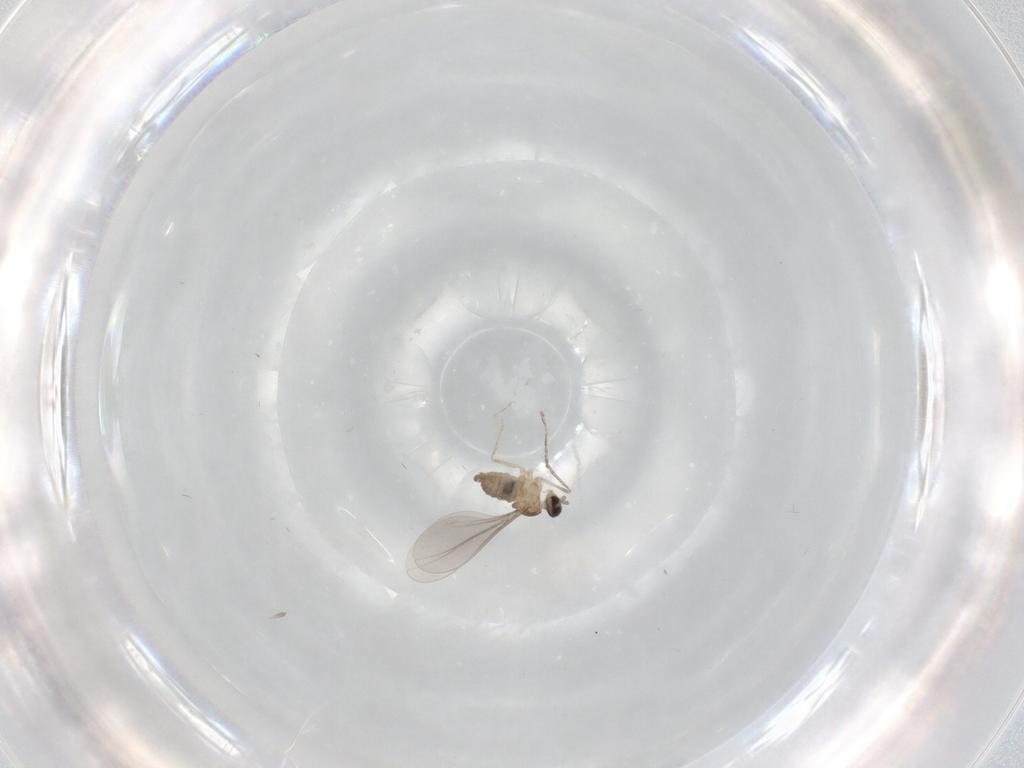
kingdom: Animalia
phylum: Arthropoda
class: Insecta
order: Diptera
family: Cecidomyiidae
